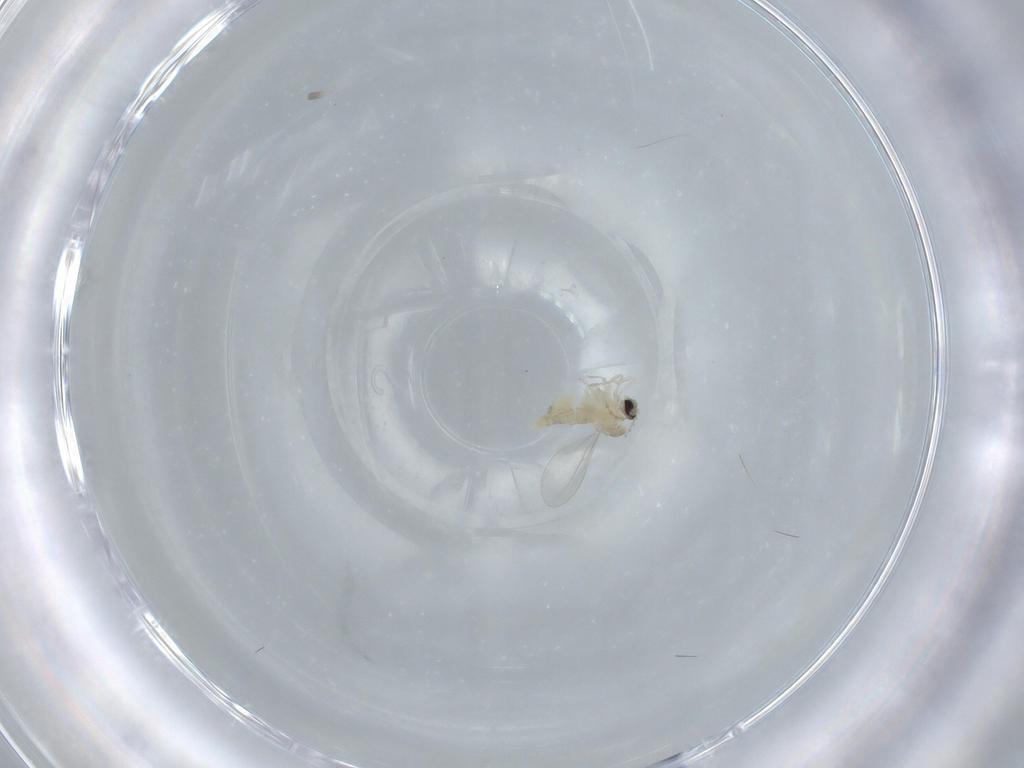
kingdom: Animalia
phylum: Arthropoda
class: Insecta
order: Diptera
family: Cecidomyiidae
